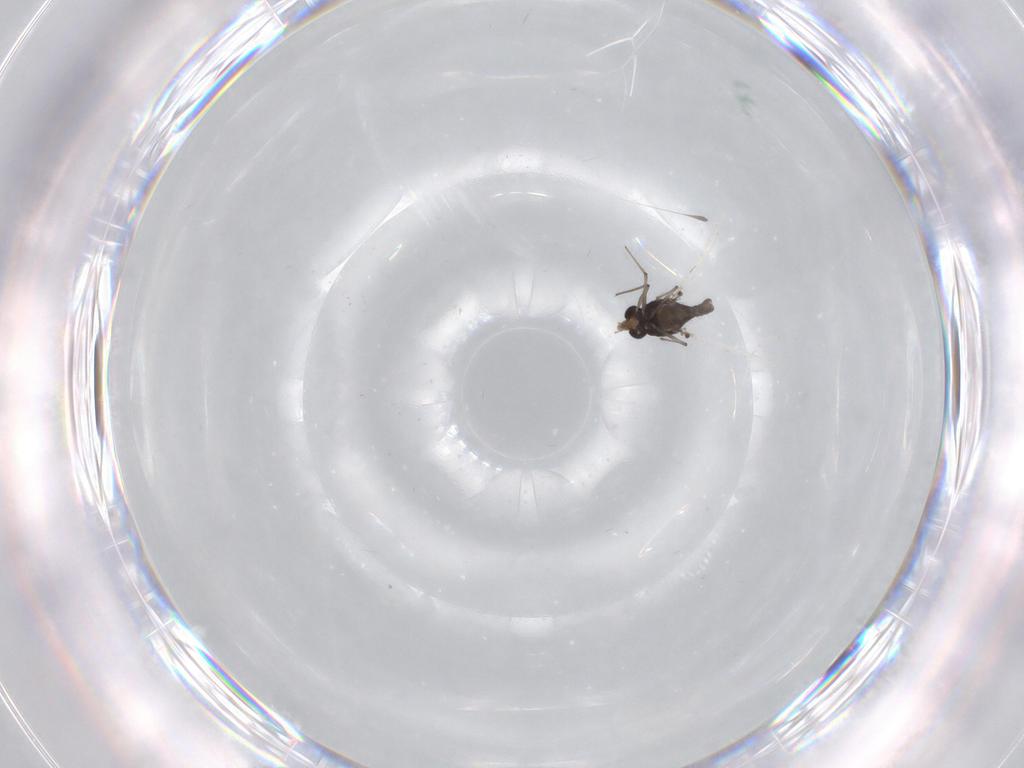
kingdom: Animalia
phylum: Arthropoda
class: Insecta
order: Diptera
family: Chironomidae
